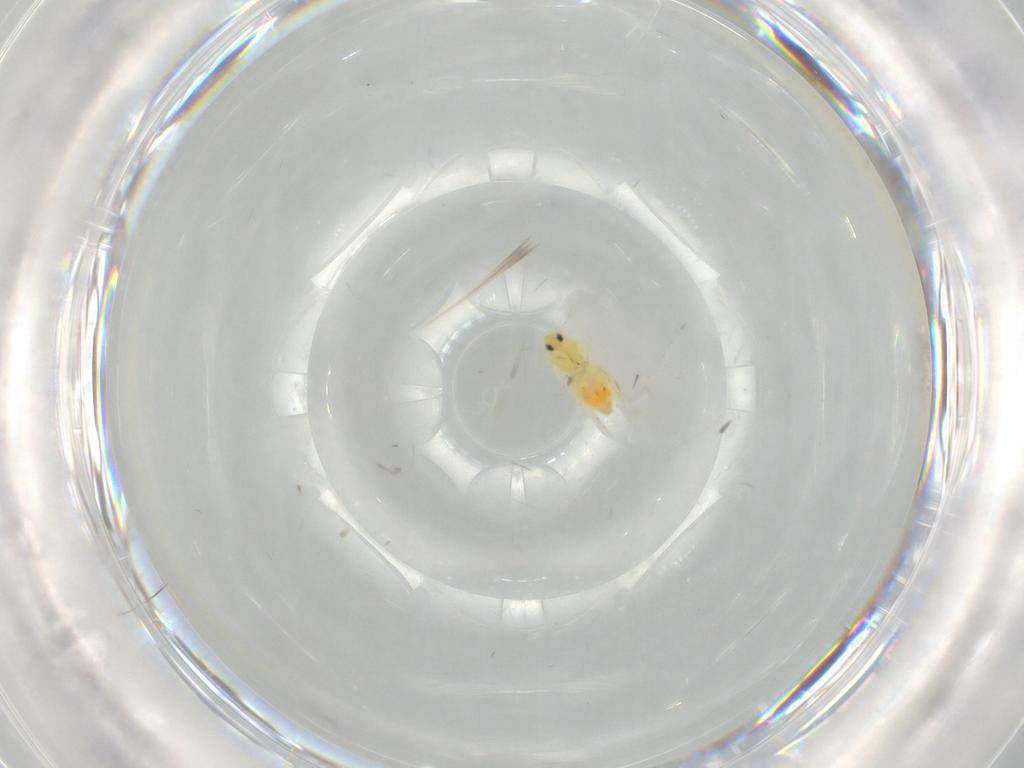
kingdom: Animalia
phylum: Arthropoda
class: Insecta
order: Hemiptera
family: Aleyrodidae
